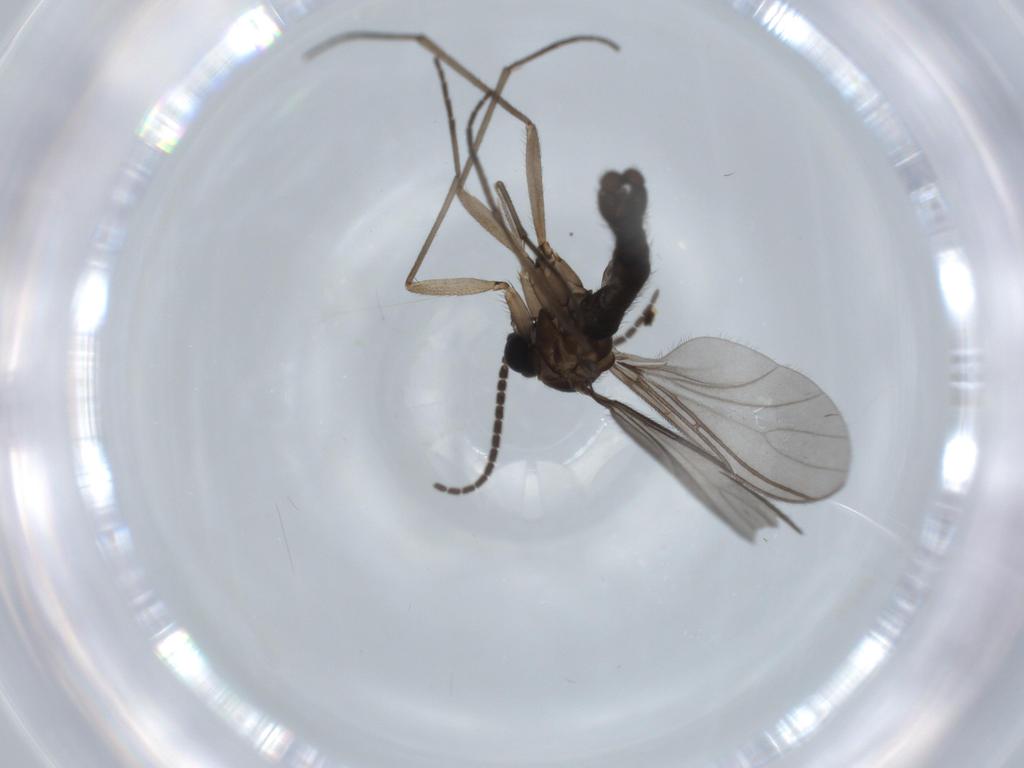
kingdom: Animalia
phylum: Arthropoda
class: Insecta
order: Diptera
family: Sciaridae
